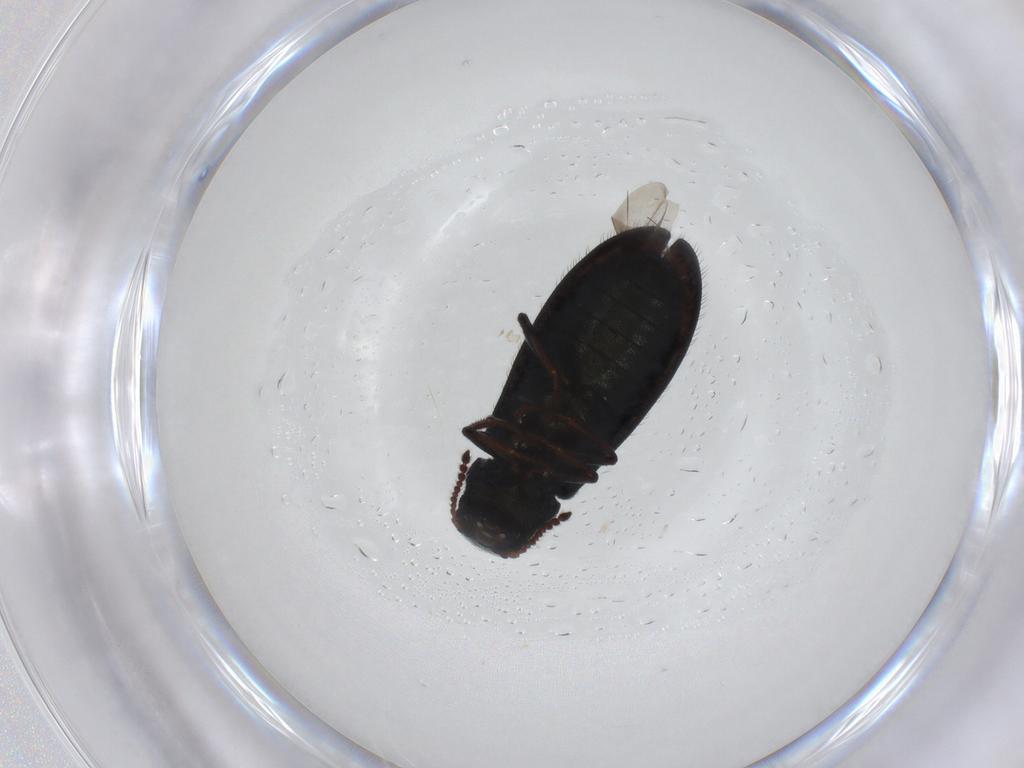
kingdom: Animalia
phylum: Arthropoda
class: Insecta
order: Coleoptera
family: Melyridae
